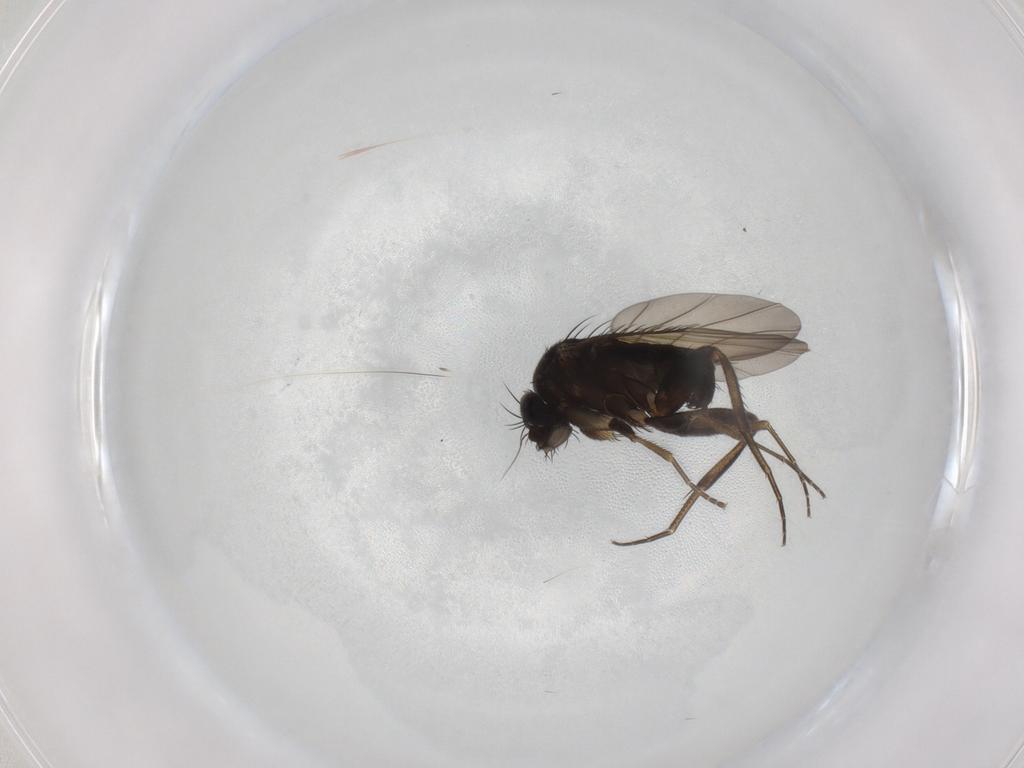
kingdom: Animalia
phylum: Arthropoda
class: Insecta
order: Diptera
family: Phoridae
